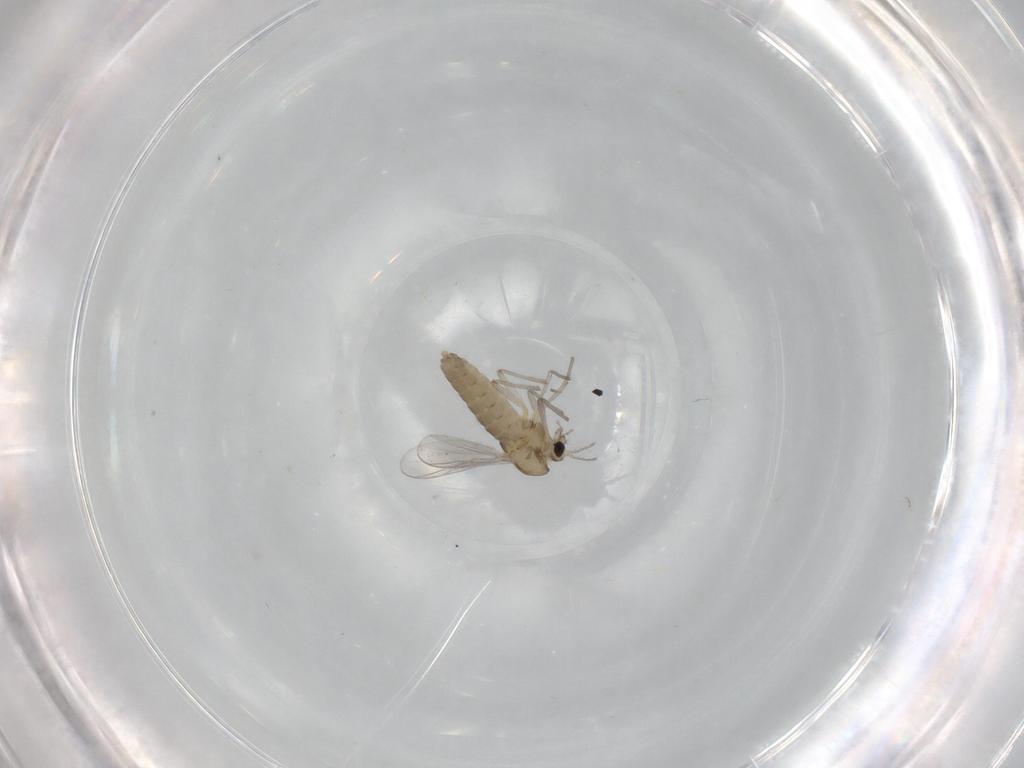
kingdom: Animalia
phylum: Arthropoda
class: Insecta
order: Diptera
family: Chironomidae
